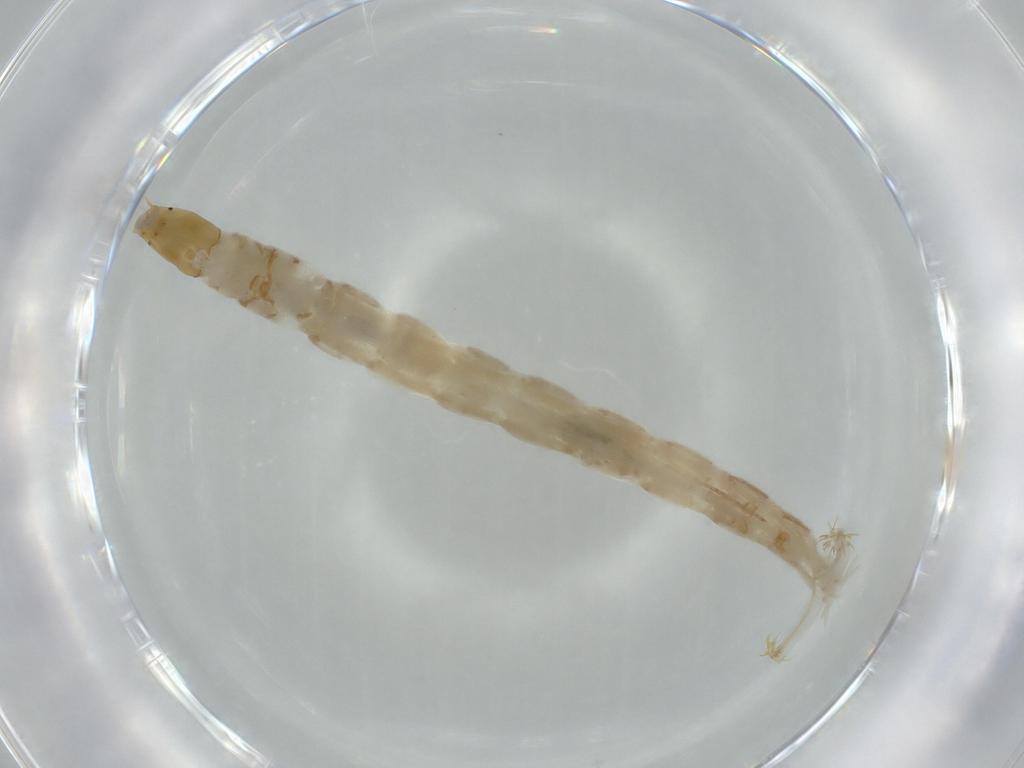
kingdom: Animalia
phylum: Arthropoda
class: Insecta
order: Diptera
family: Chironomidae
